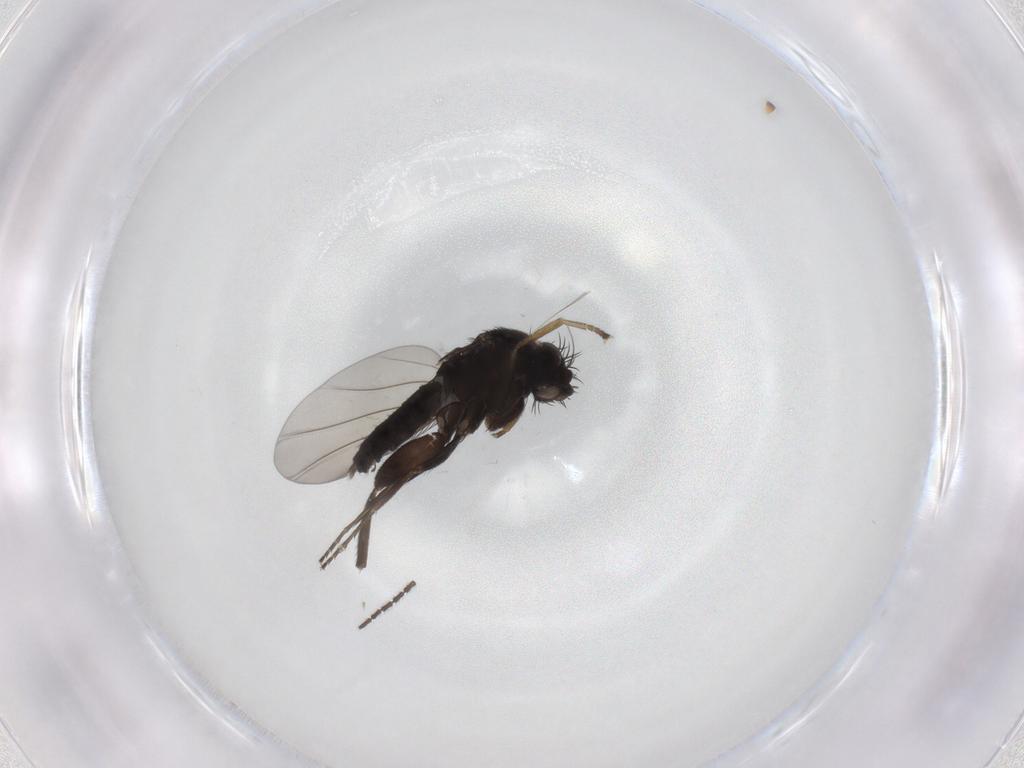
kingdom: Animalia
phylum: Arthropoda
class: Insecta
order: Diptera
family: Phoridae
